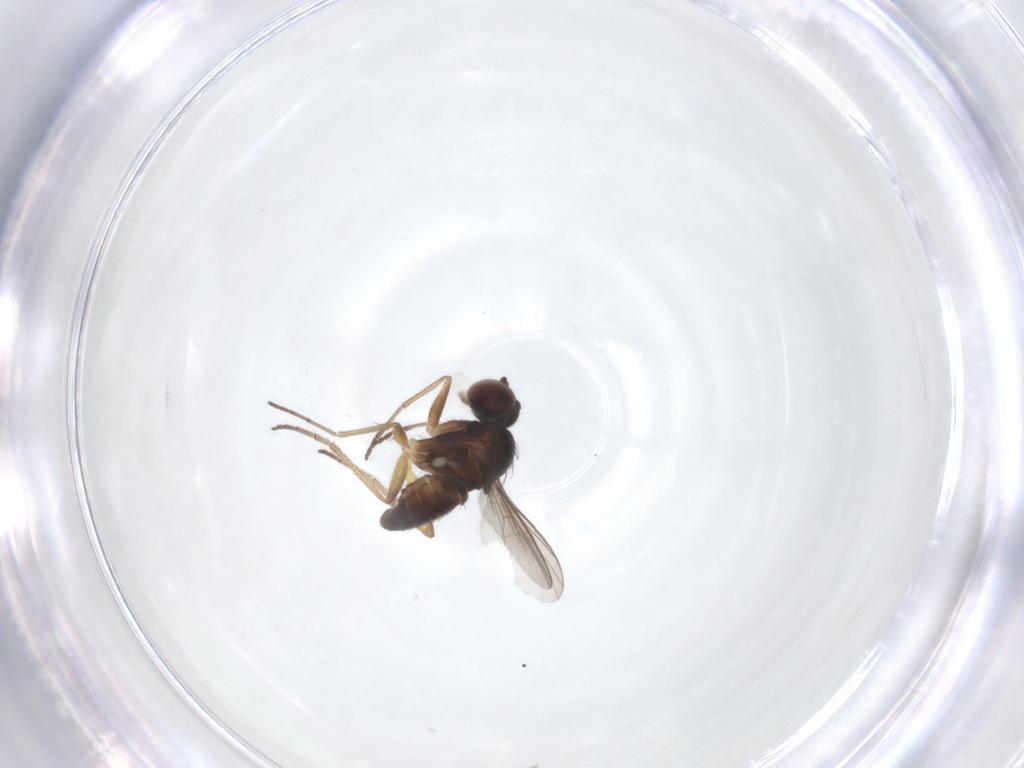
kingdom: Animalia
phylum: Arthropoda
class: Insecta
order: Diptera
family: Dolichopodidae
